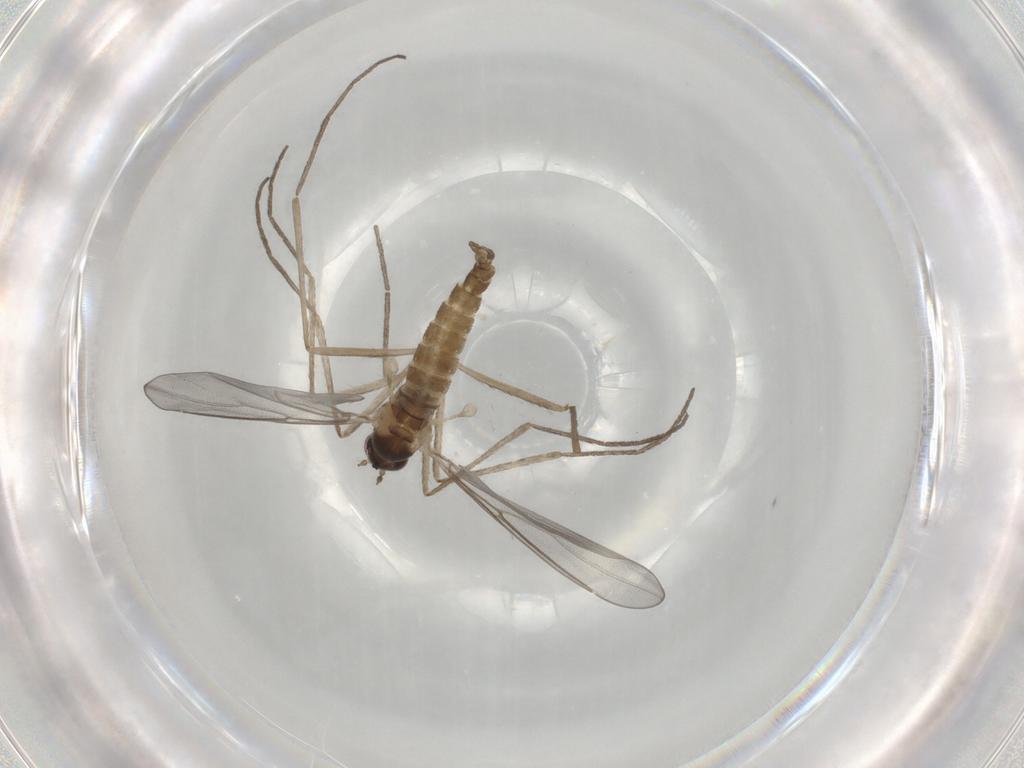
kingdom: Animalia
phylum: Arthropoda
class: Insecta
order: Diptera
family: Cecidomyiidae
